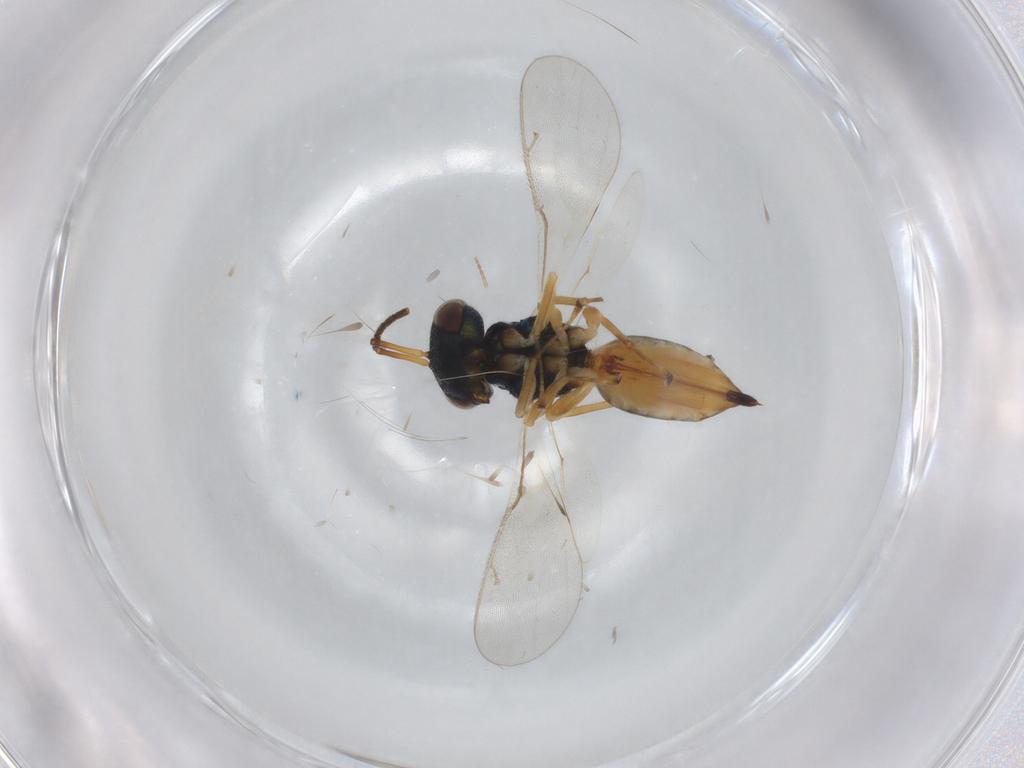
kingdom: Animalia
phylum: Arthropoda
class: Insecta
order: Hymenoptera
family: Pteromalidae
